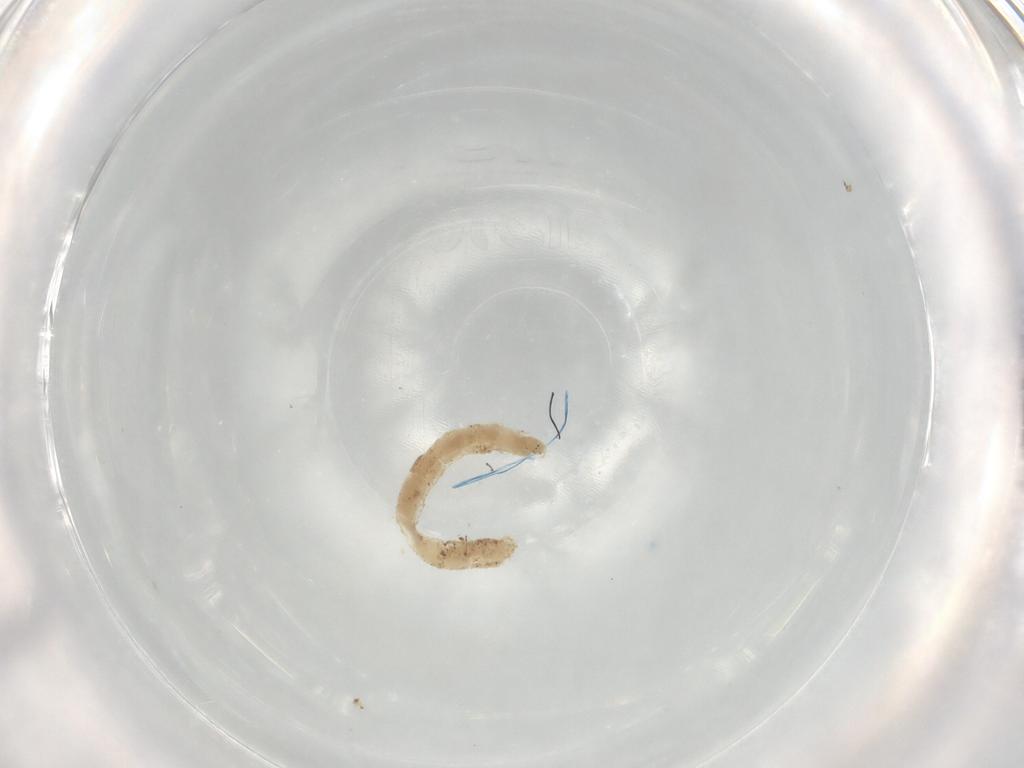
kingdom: Animalia
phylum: Arthropoda
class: Insecta
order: Diptera
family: Chironomidae
